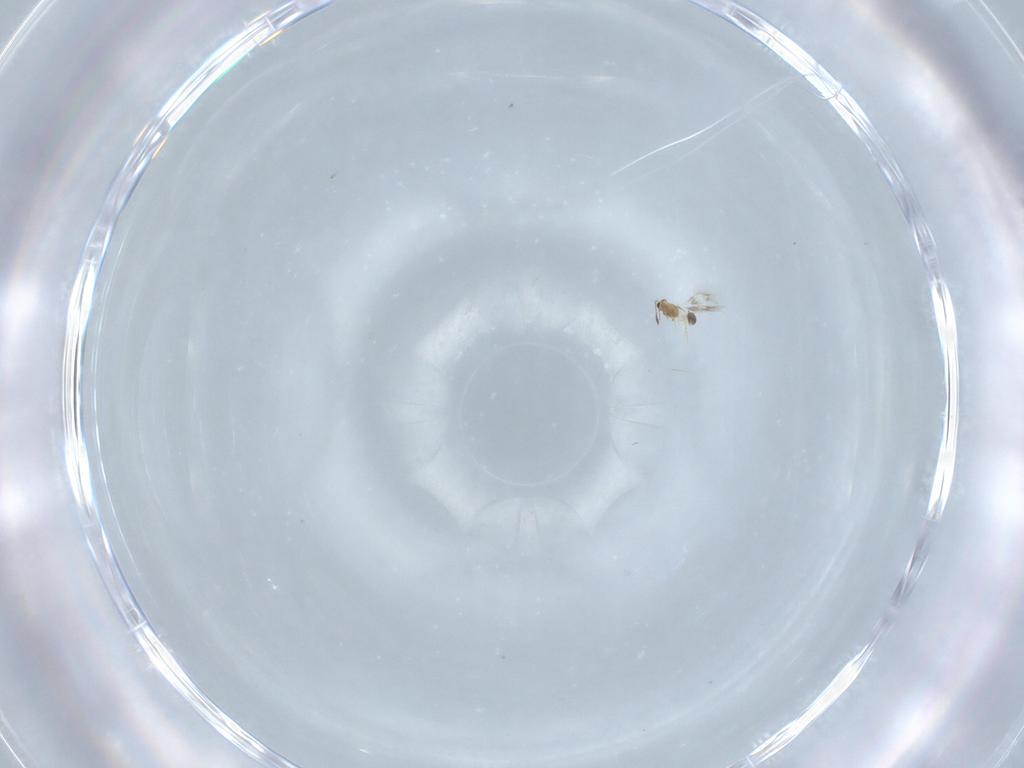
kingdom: Animalia
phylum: Arthropoda
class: Insecta
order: Hymenoptera
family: Mymarommatidae
